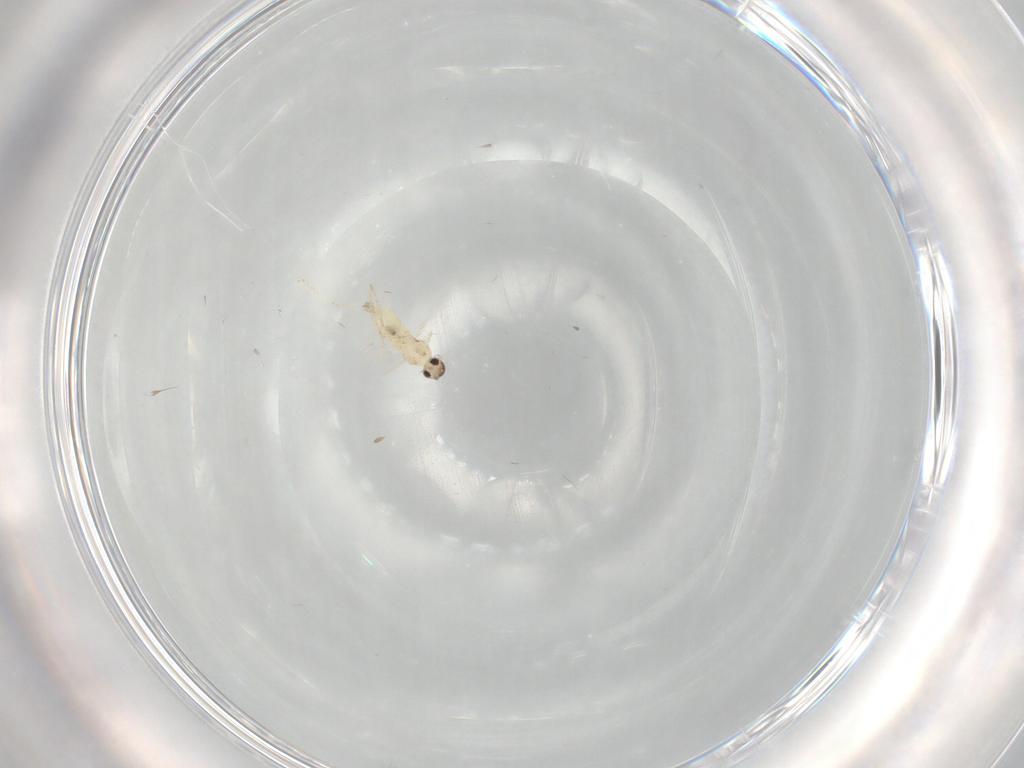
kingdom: Animalia
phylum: Arthropoda
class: Insecta
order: Diptera
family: Cecidomyiidae
